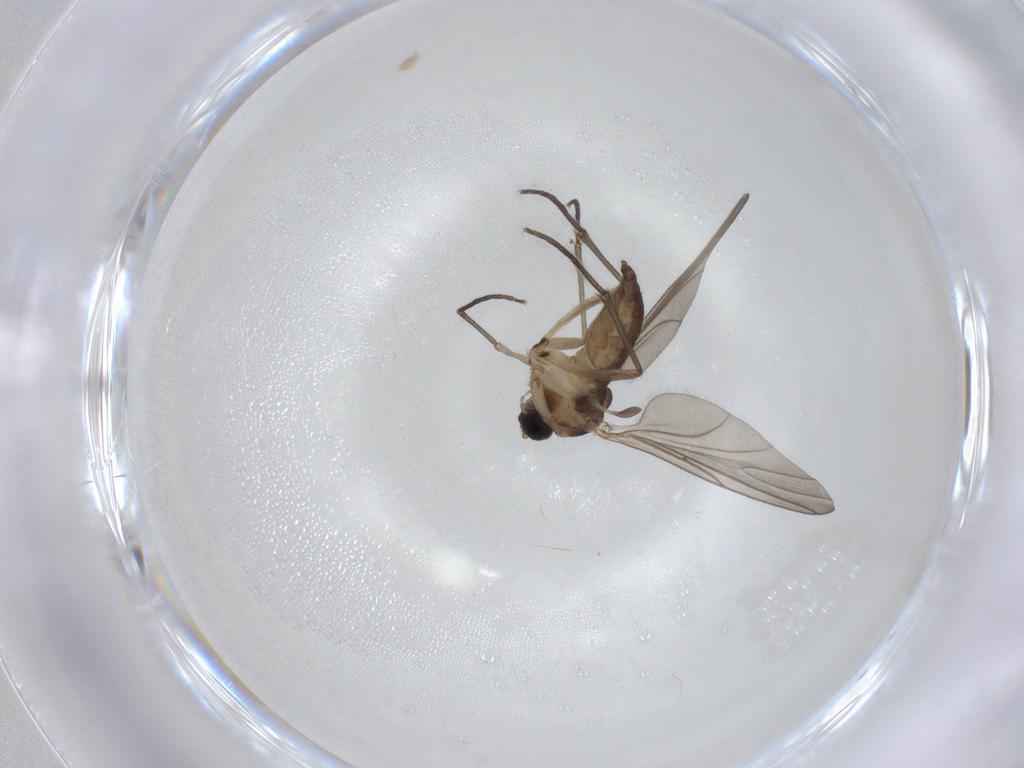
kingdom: Animalia
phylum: Arthropoda
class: Insecta
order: Diptera
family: Sciaridae
